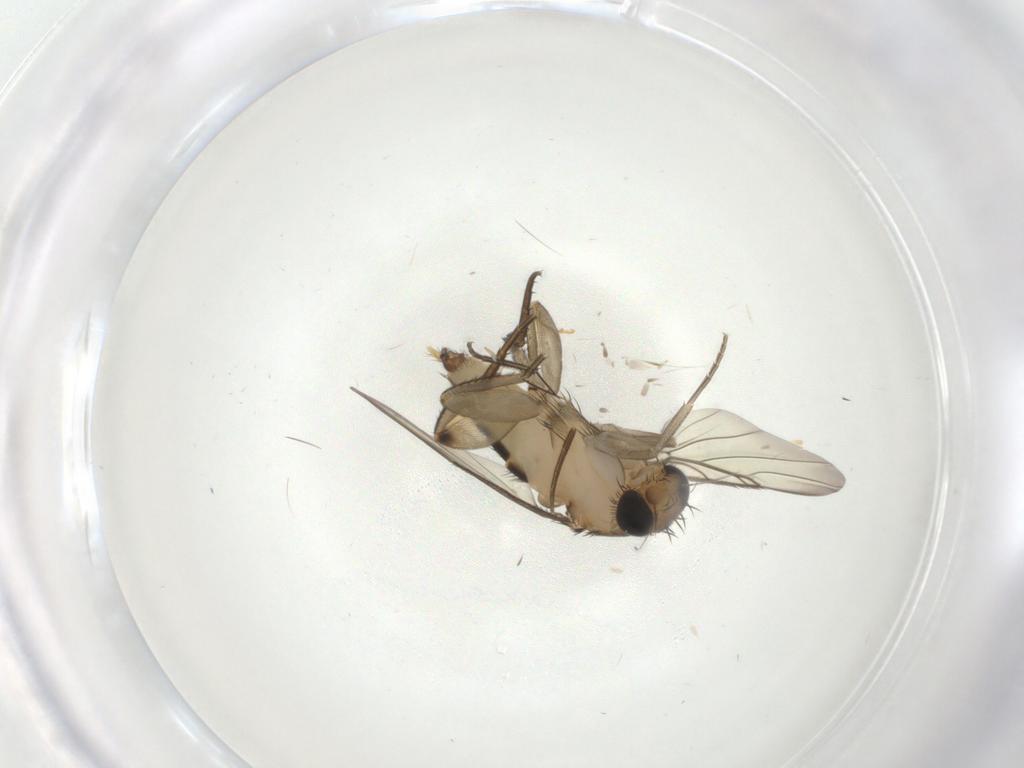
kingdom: Animalia
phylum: Arthropoda
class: Insecta
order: Diptera
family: Phoridae
